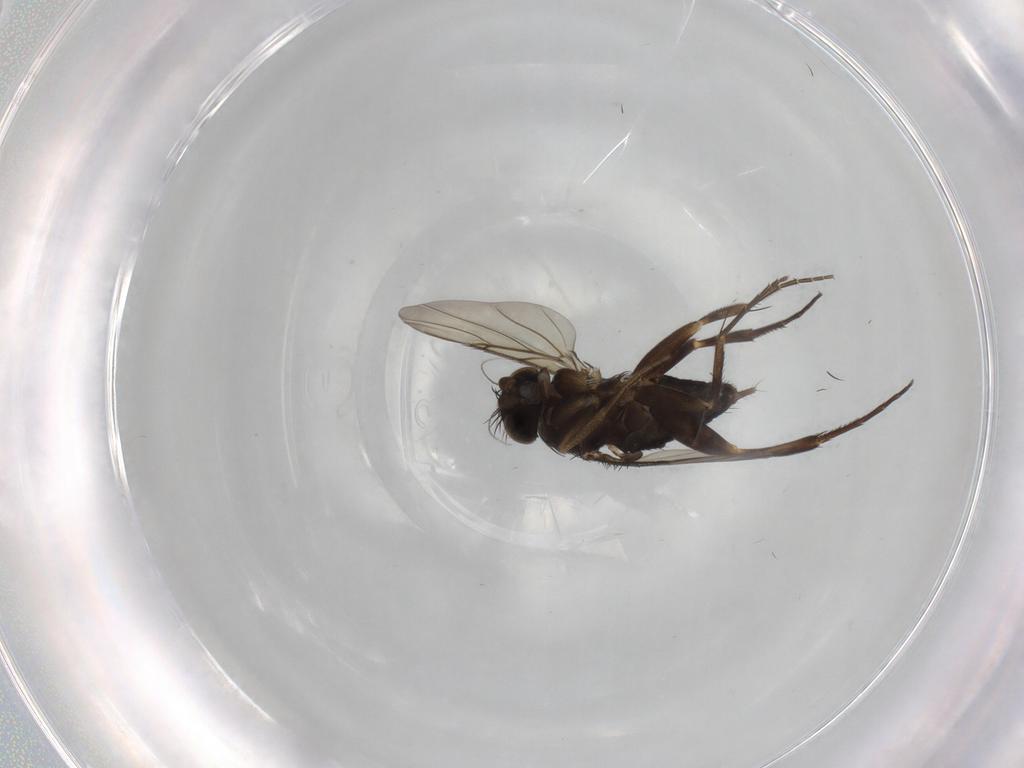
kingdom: Animalia
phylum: Arthropoda
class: Insecta
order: Diptera
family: Phoridae
